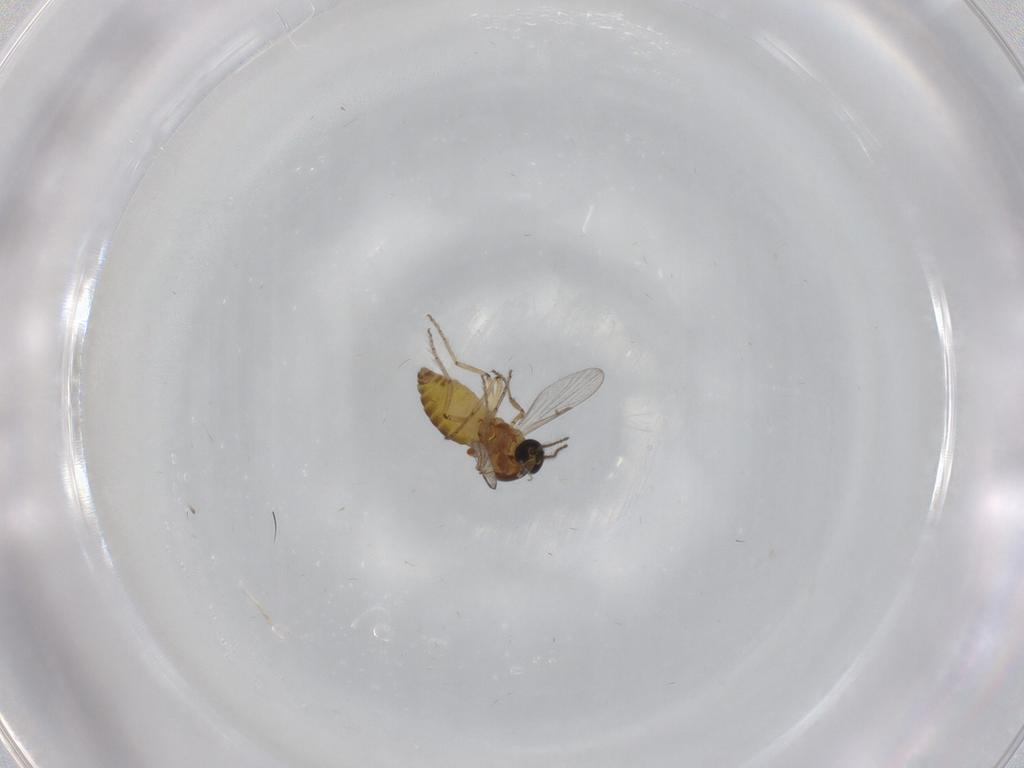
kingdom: Animalia
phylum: Arthropoda
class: Insecta
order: Diptera
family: Ceratopogonidae
